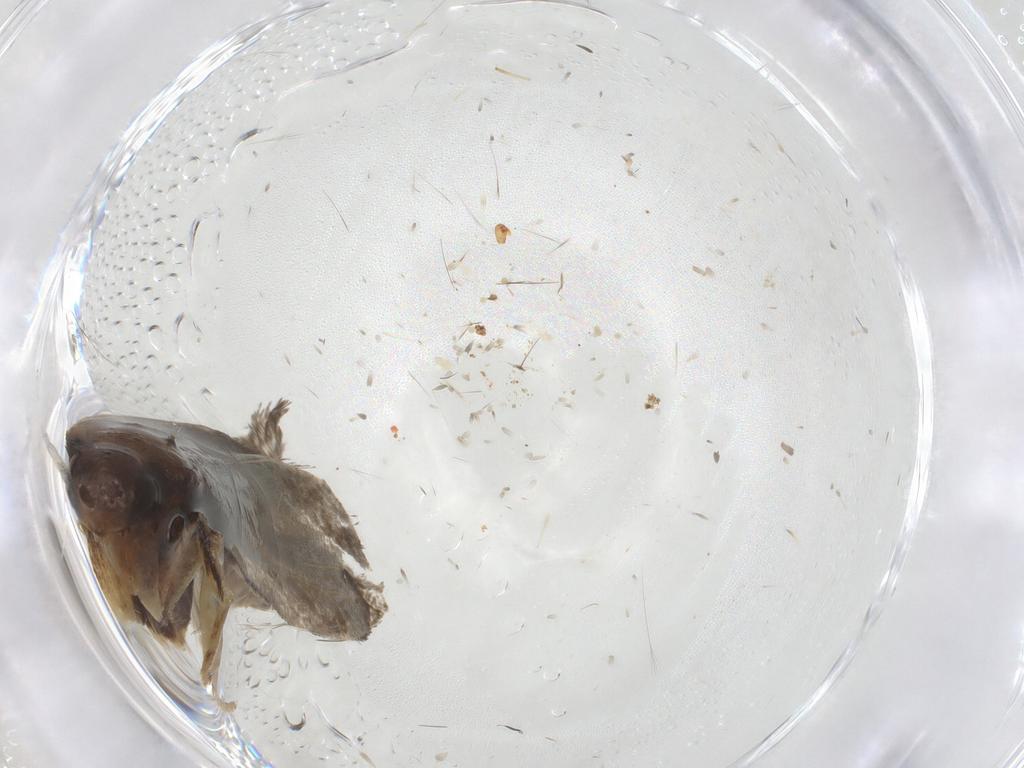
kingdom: Animalia
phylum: Arthropoda
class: Insecta
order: Lepidoptera
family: Lecithoceridae
